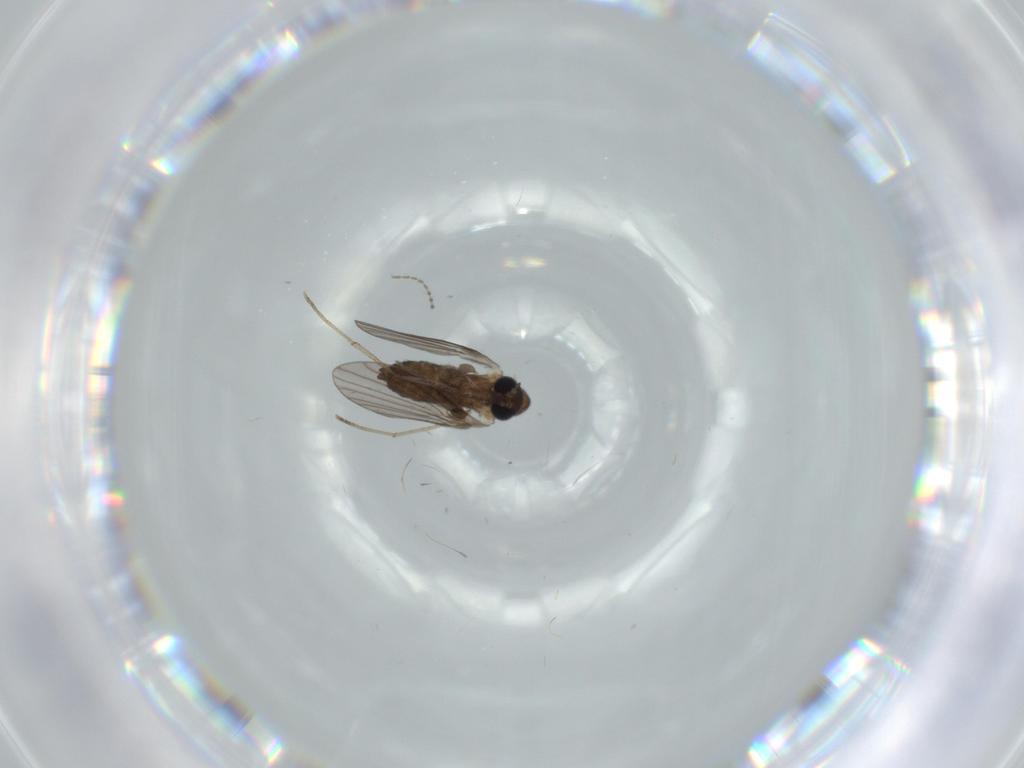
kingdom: Animalia
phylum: Arthropoda
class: Insecta
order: Diptera
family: Ceratopogonidae
